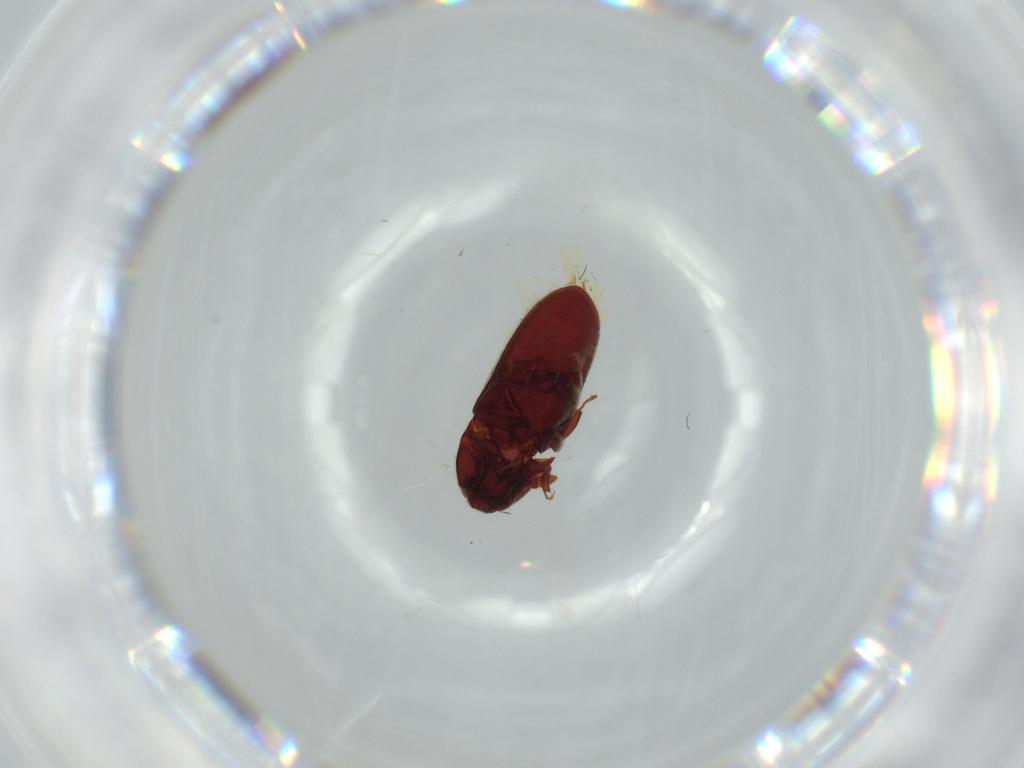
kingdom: Animalia
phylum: Arthropoda
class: Insecta
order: Coleoptera
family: Throscidae
